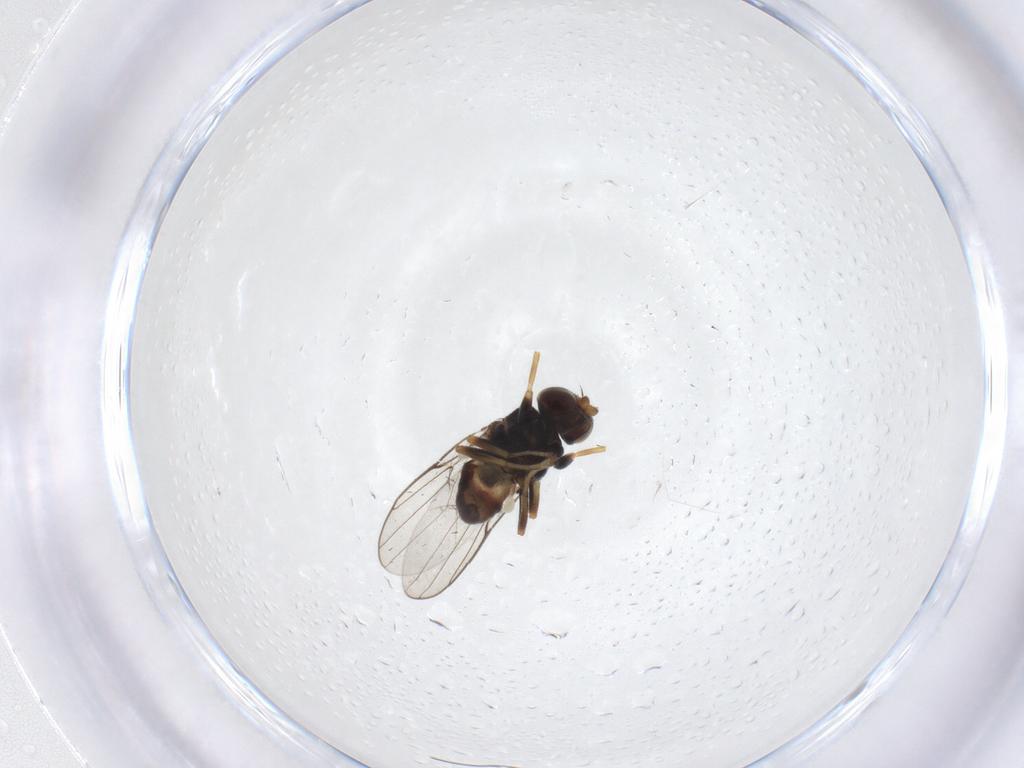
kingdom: Animalia
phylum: Arthropoda
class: Insecta
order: Diptera
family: Chloropidae
